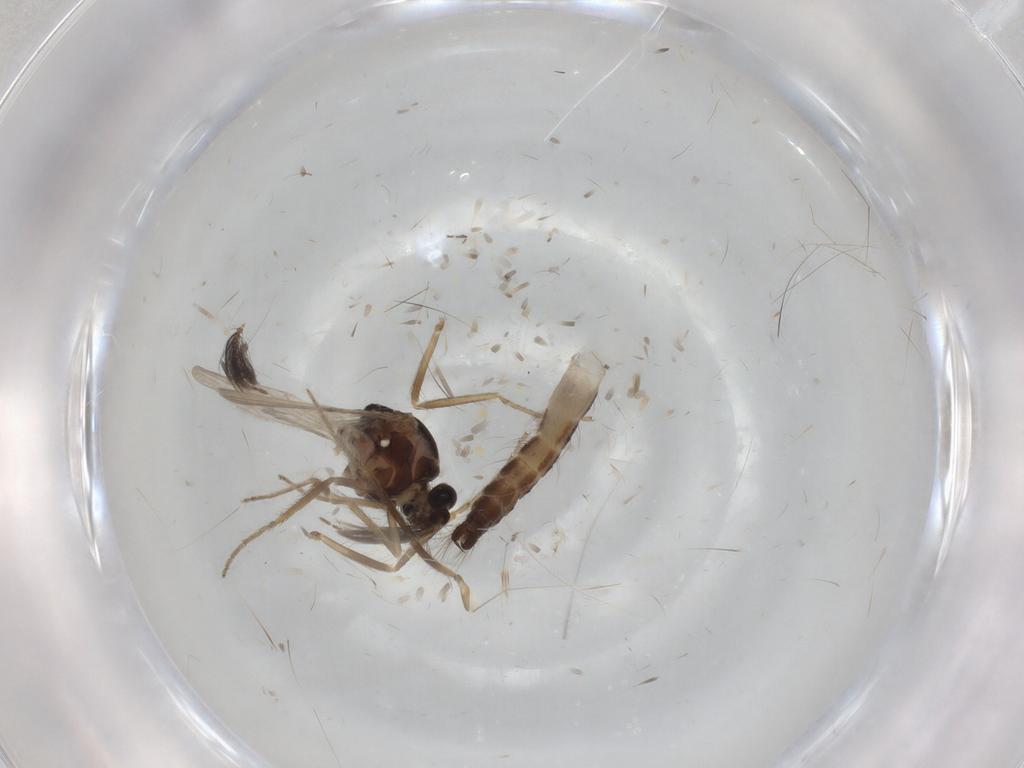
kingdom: Animalia
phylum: Arthropoda
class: Insecta
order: Diptera
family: Ceratopogonidae
